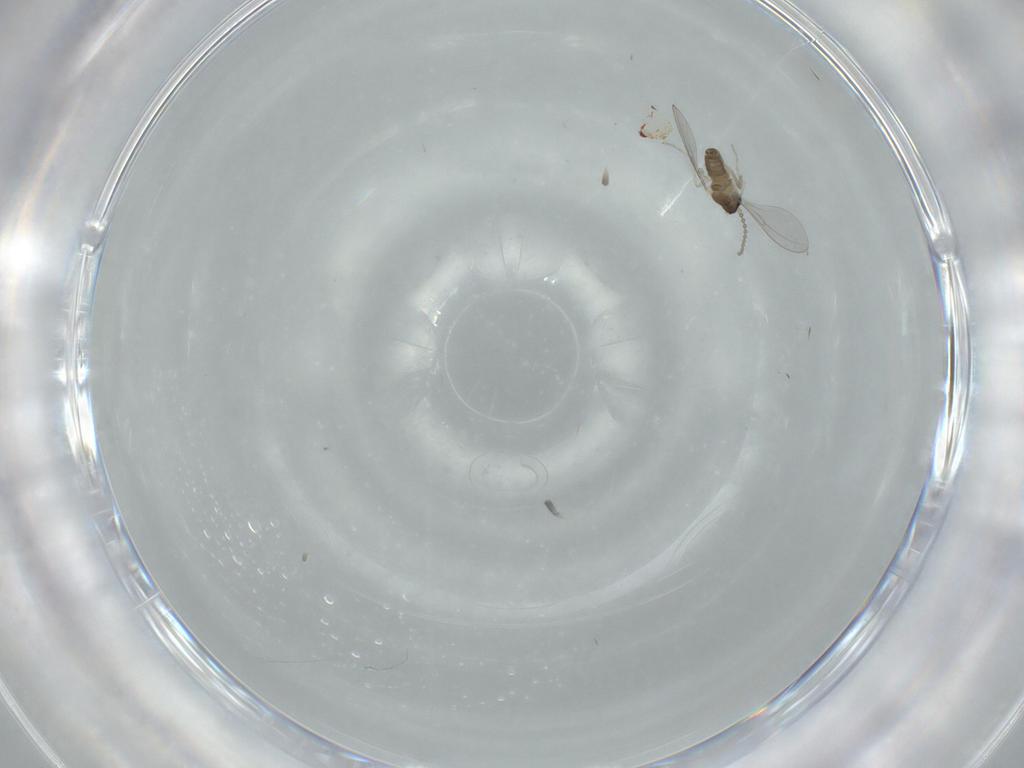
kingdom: Animalia
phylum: Arthropoda
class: Insecta
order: Diptera
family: Cecidomyiidae
